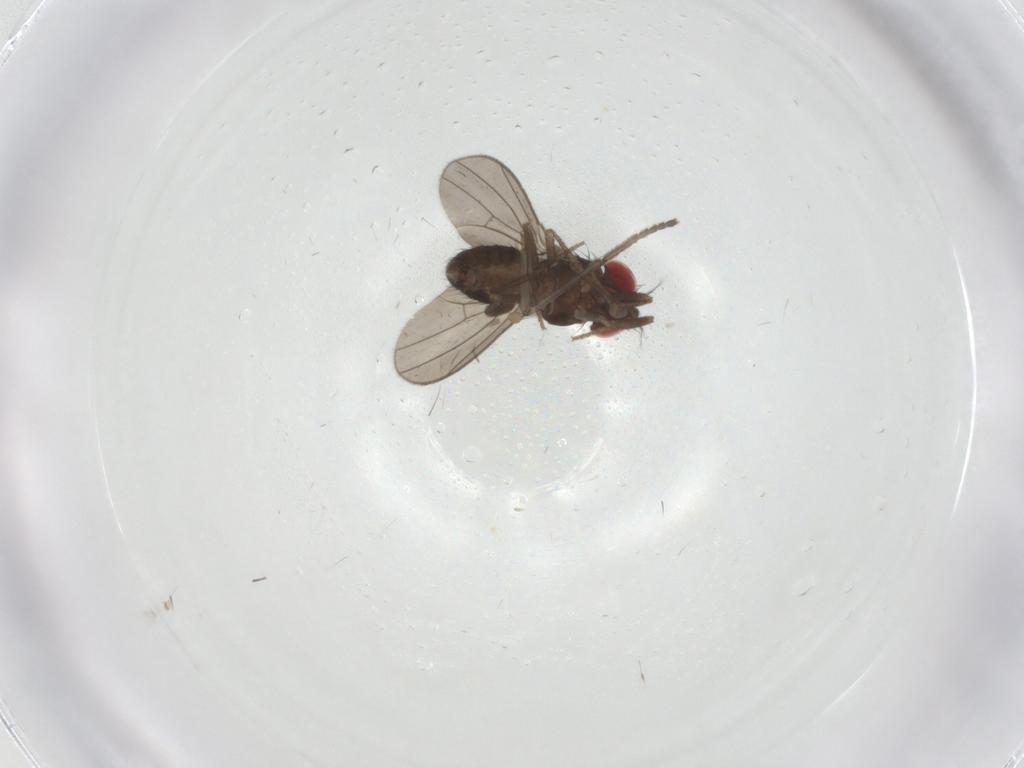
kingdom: Animalia
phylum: Arthropoda
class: Insecta
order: Diptera
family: Drosophilidae
